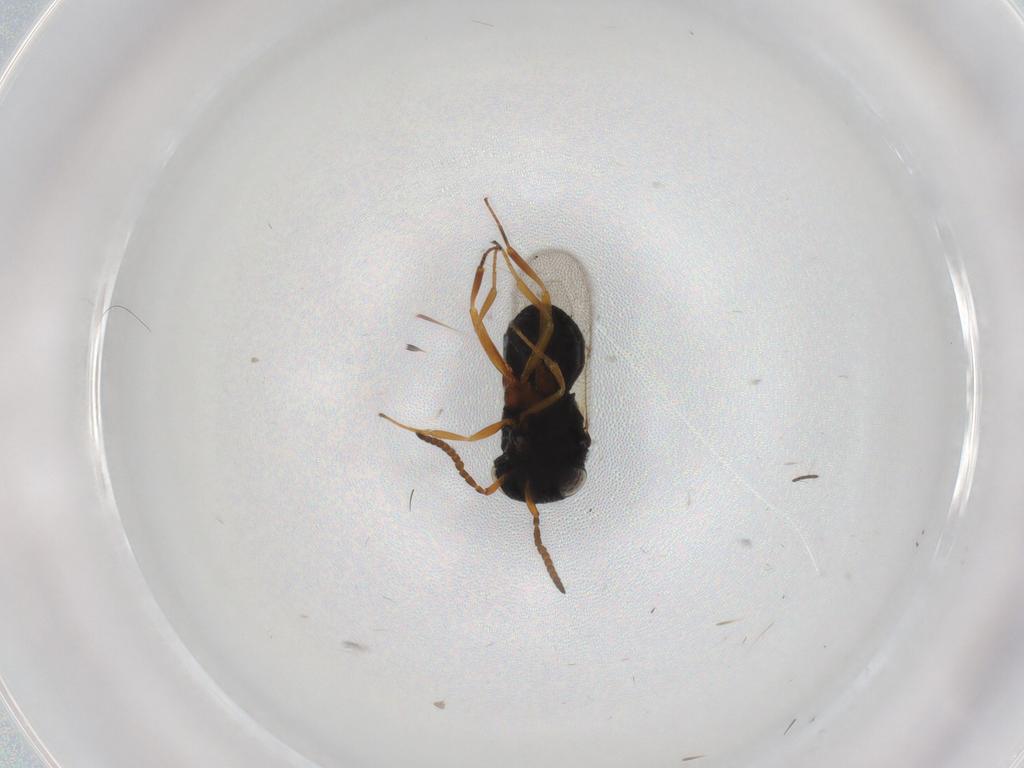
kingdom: Animalia
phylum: Arthropoda
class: Insecta
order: Hymenoptera
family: Scelionidae
